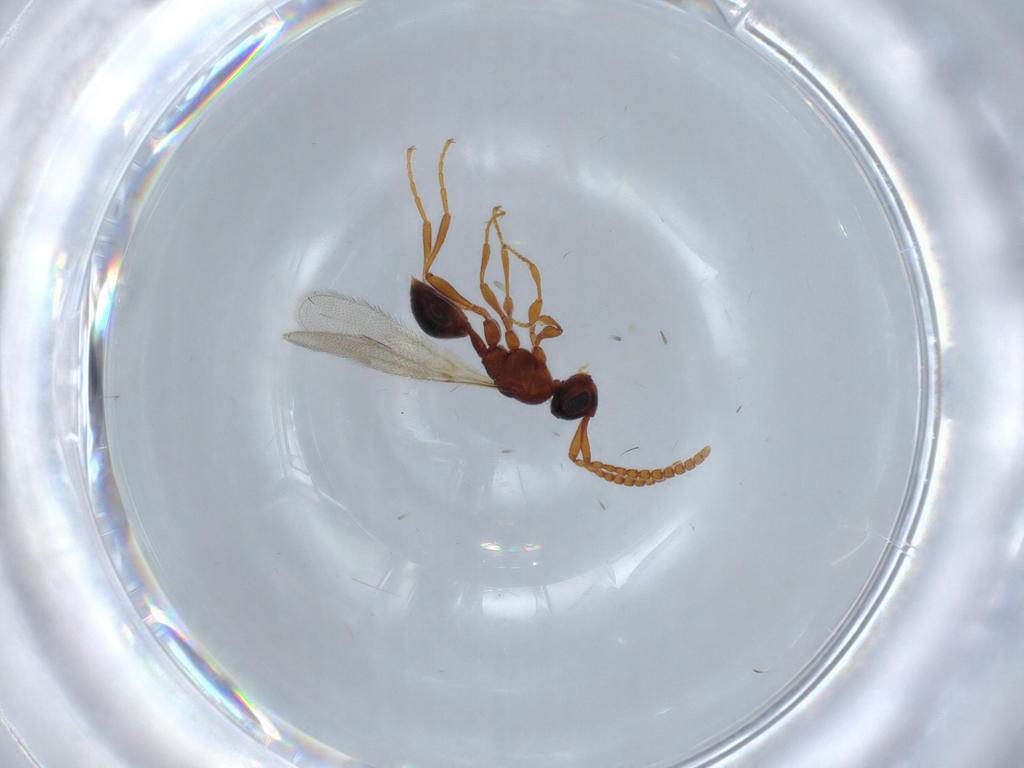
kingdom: Animalia
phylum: Arthropoda
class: Insecta
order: Hymenoptera
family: Diapriidae
